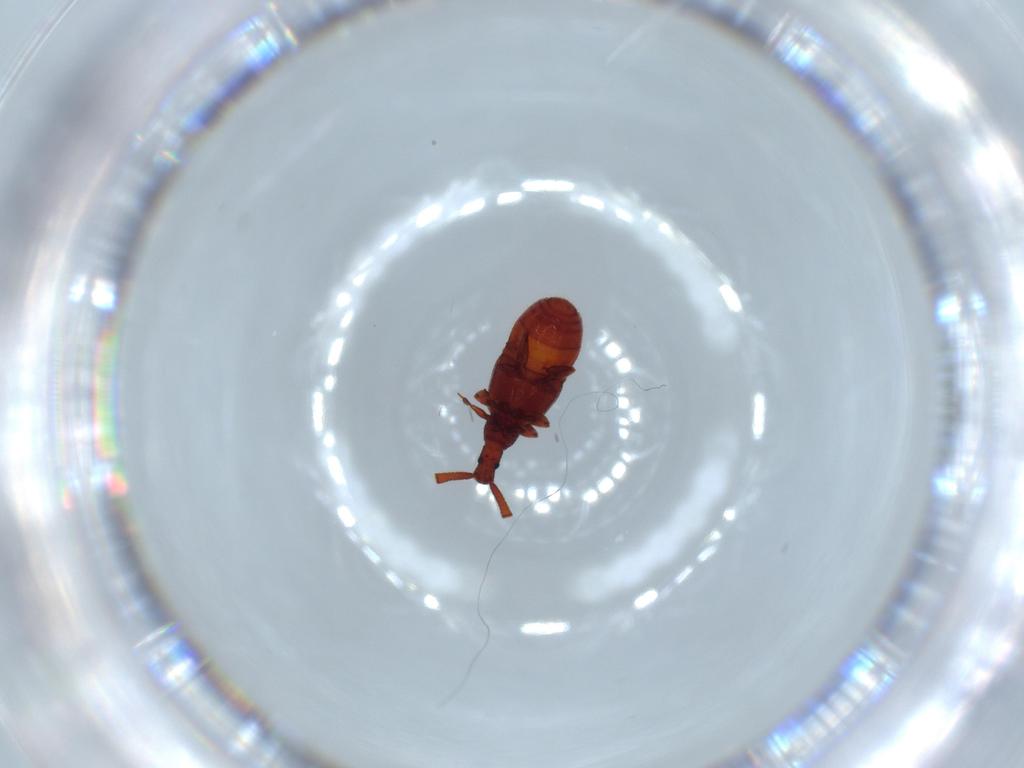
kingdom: Animalia
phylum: Arthropoda
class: Insecta
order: Coleoptera
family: Staphylinidae
